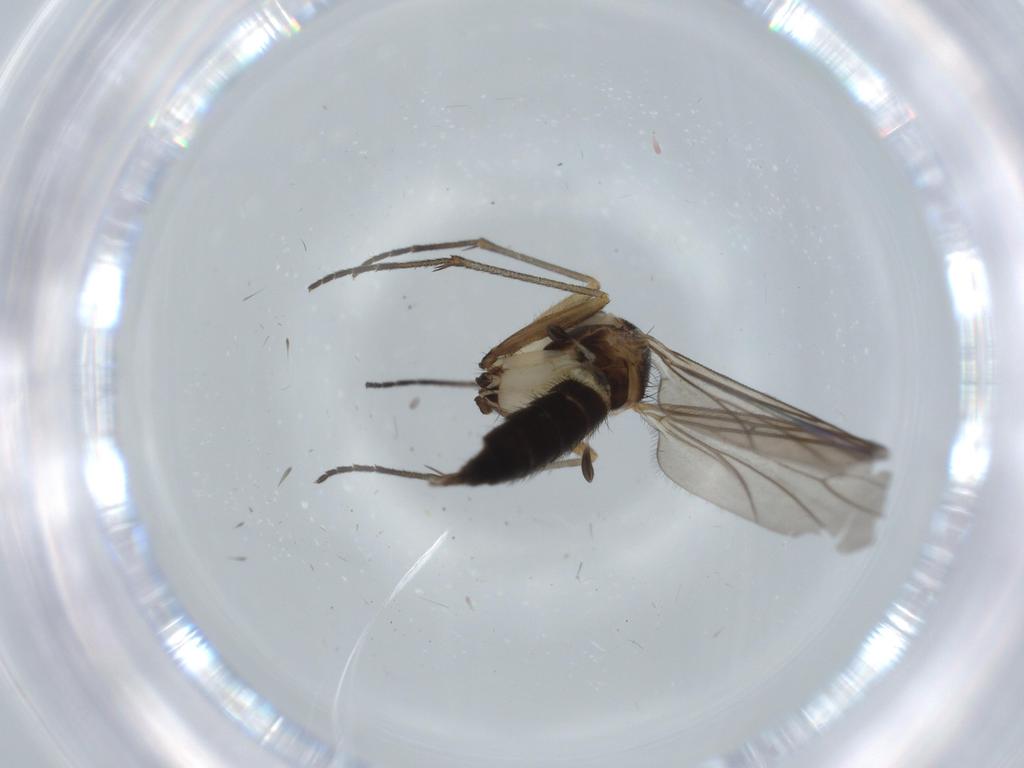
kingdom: Animalia
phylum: Arthropoda
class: Insecta
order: Diptera
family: Sciaridae
